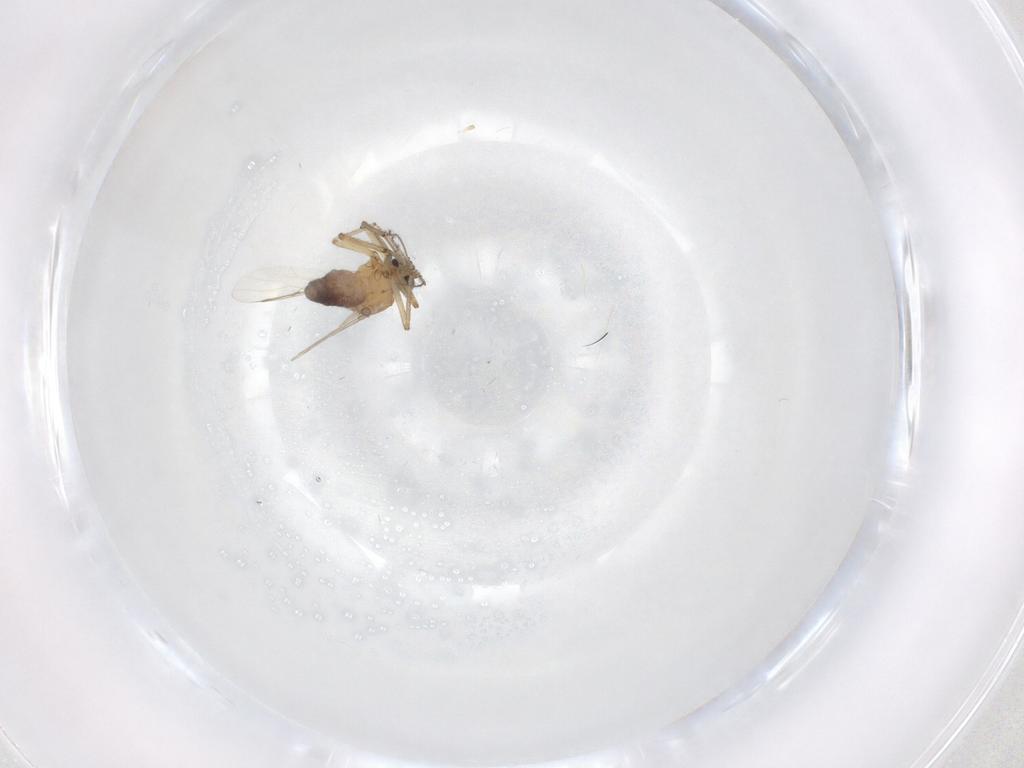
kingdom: Animalia
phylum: Arthropoda
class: Insecta
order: Diptera
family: Ceratopogonidae
